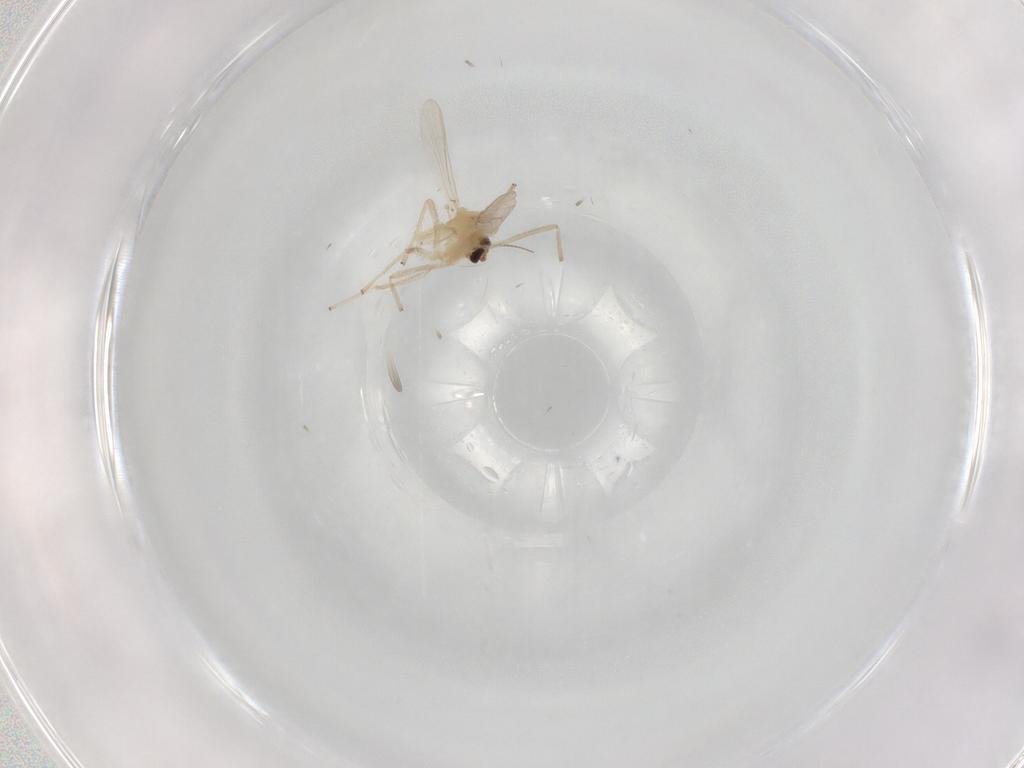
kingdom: Animalia
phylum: Arthropoda
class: Insecta
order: Diptera
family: Chironomidae
